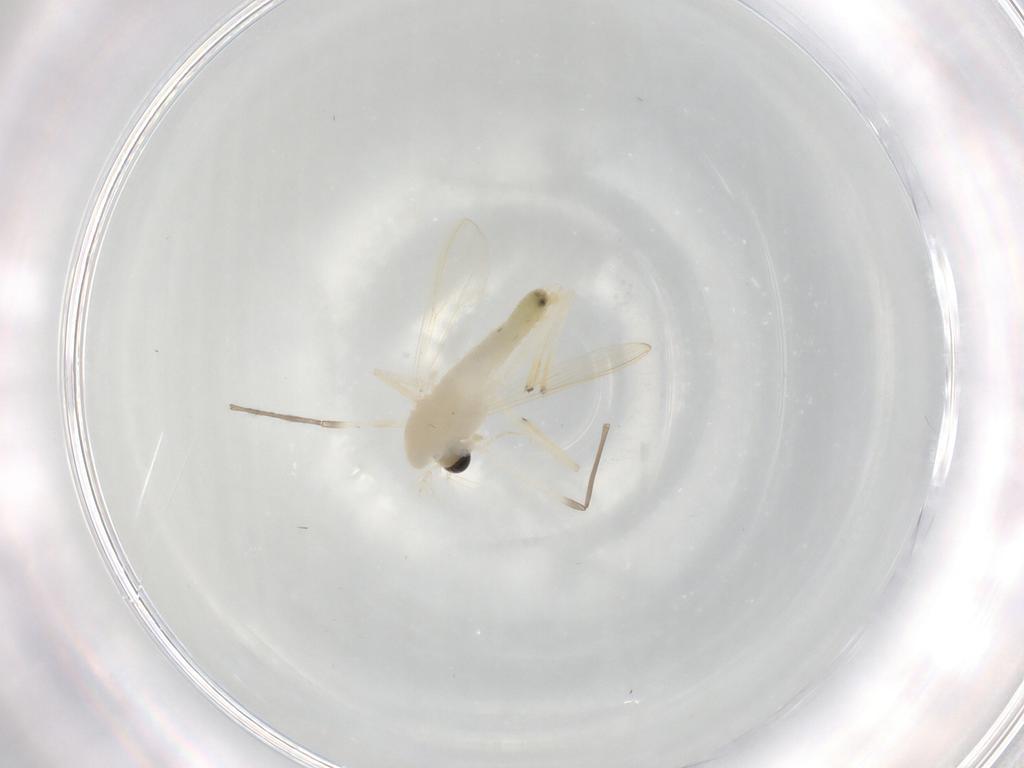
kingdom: Animalia
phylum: Arthropoda
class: Insecta
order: Diptera
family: Chironomidae
